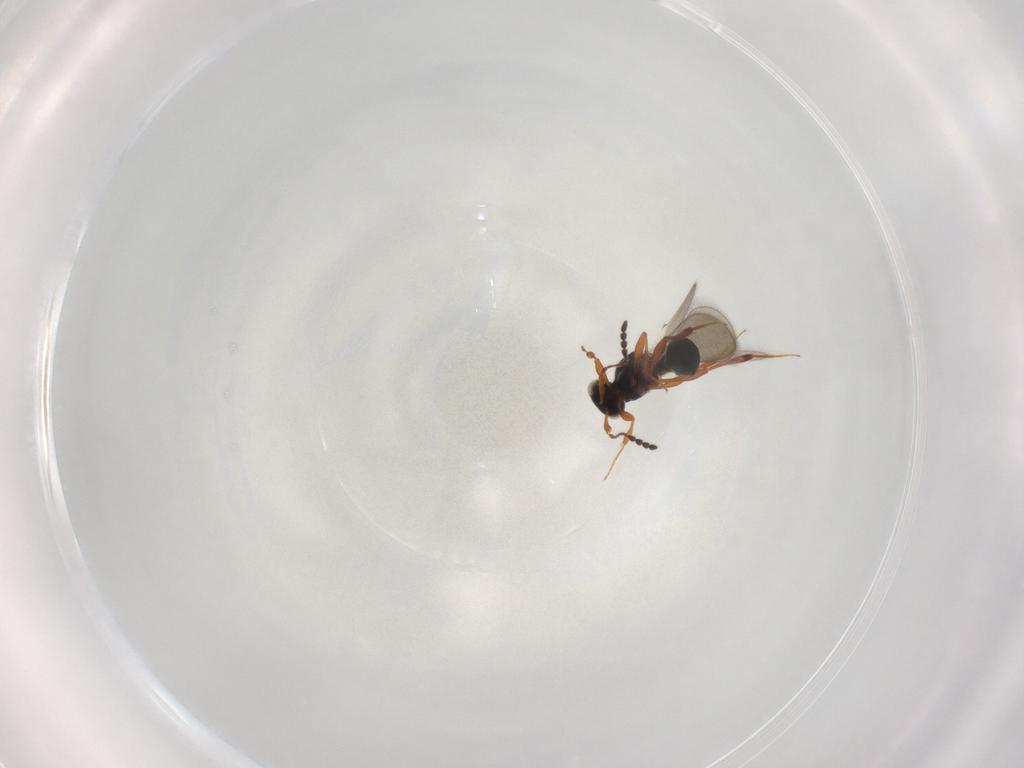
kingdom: Animalia
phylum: Arthropoda
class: Insecta
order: Hymenoptera
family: Platygastridae
